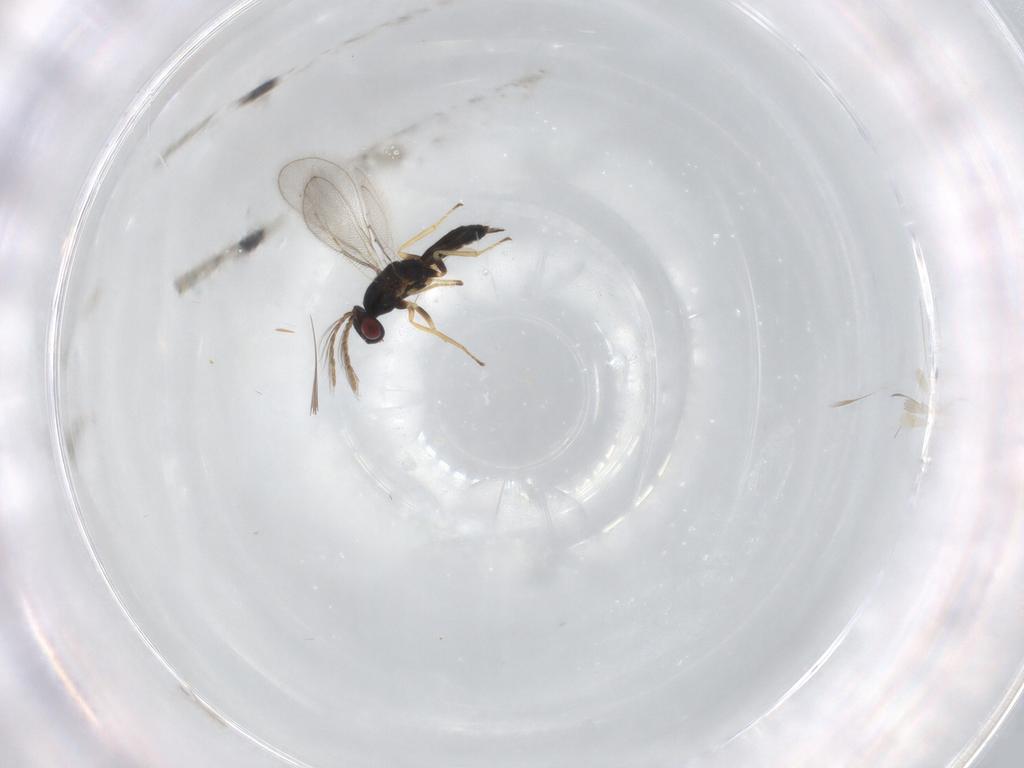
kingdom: Animalia
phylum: Arthropoda
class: Insecta
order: Hymenoptera
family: Eulophidae
